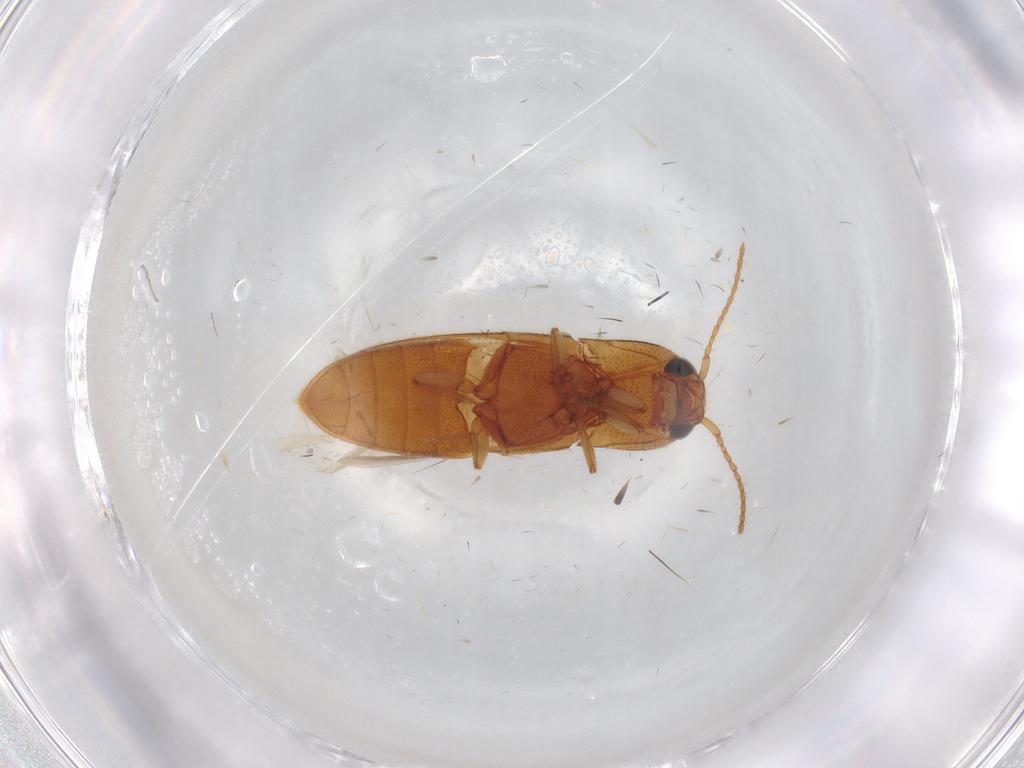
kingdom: Animalia
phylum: Arthropoda
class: Insecta
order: Coleoptera
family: Elateridae
